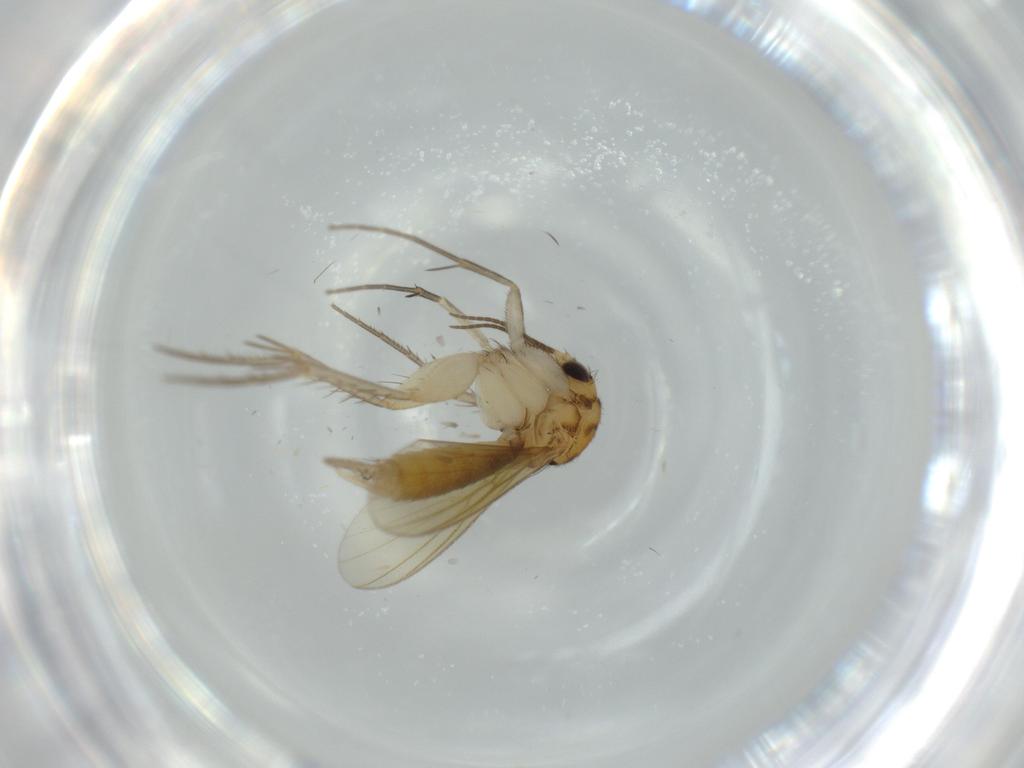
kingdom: Animalia
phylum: Arthropoda
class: Insecta
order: Diptera
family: Mycetophilidae
